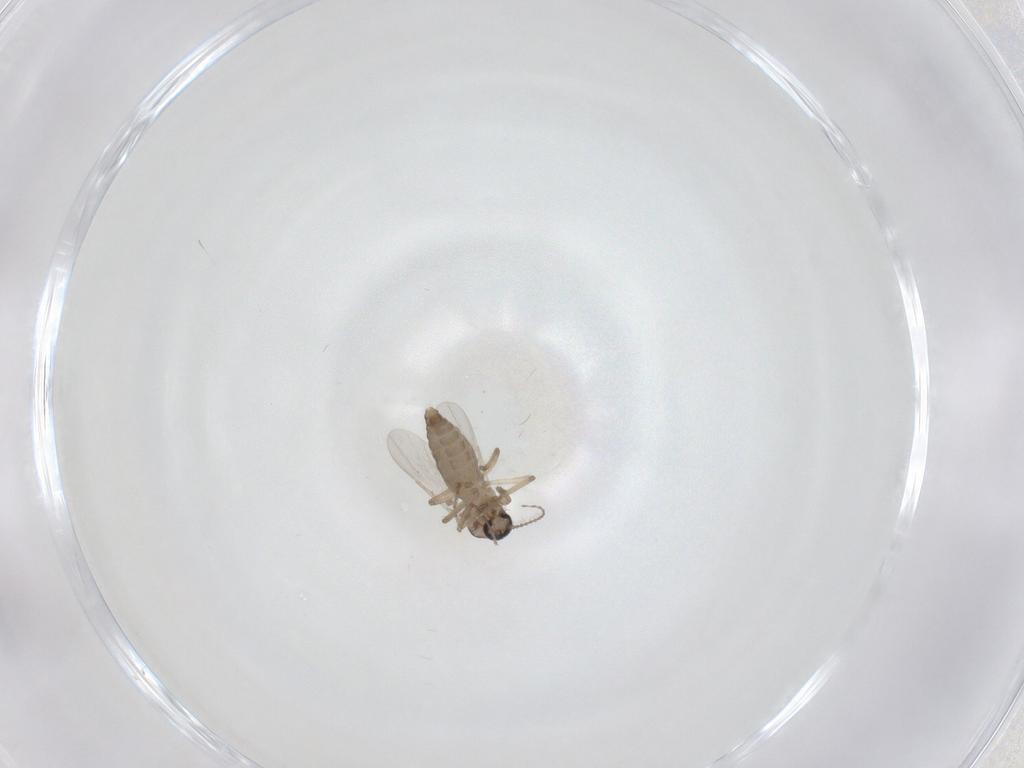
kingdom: Animalia
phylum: Arthropoda
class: Insecta
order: Diptera
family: Ceratopogonidae
